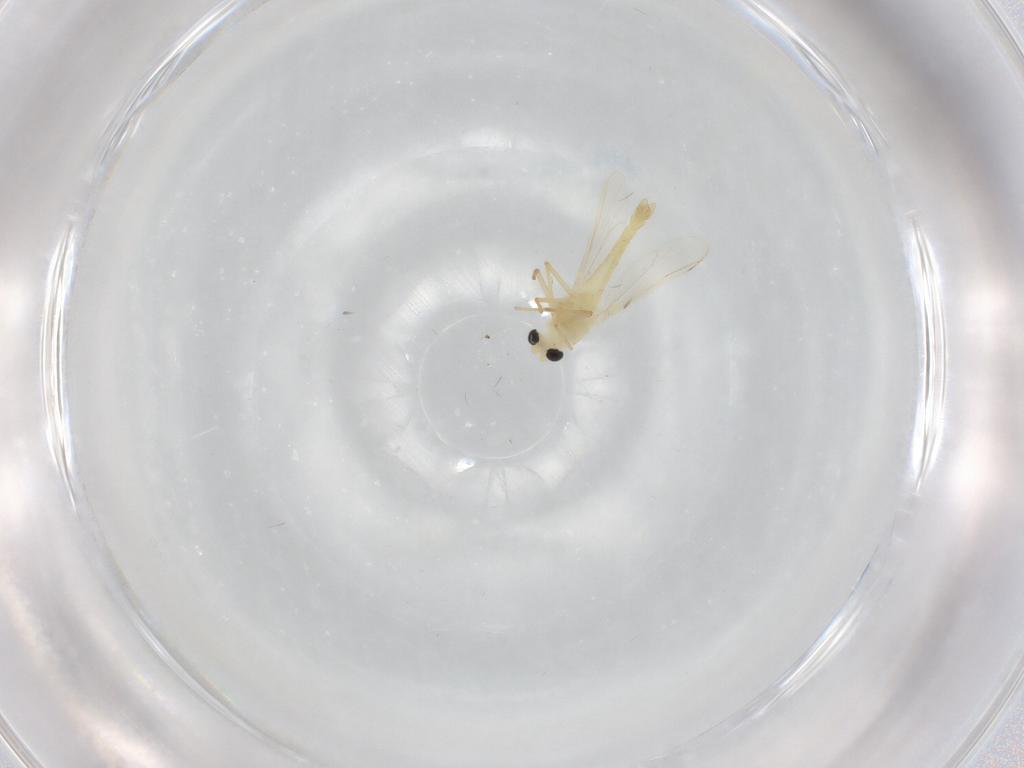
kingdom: Animalia
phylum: Arthropoda
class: Insecta
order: Diptera
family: Chironomidae
